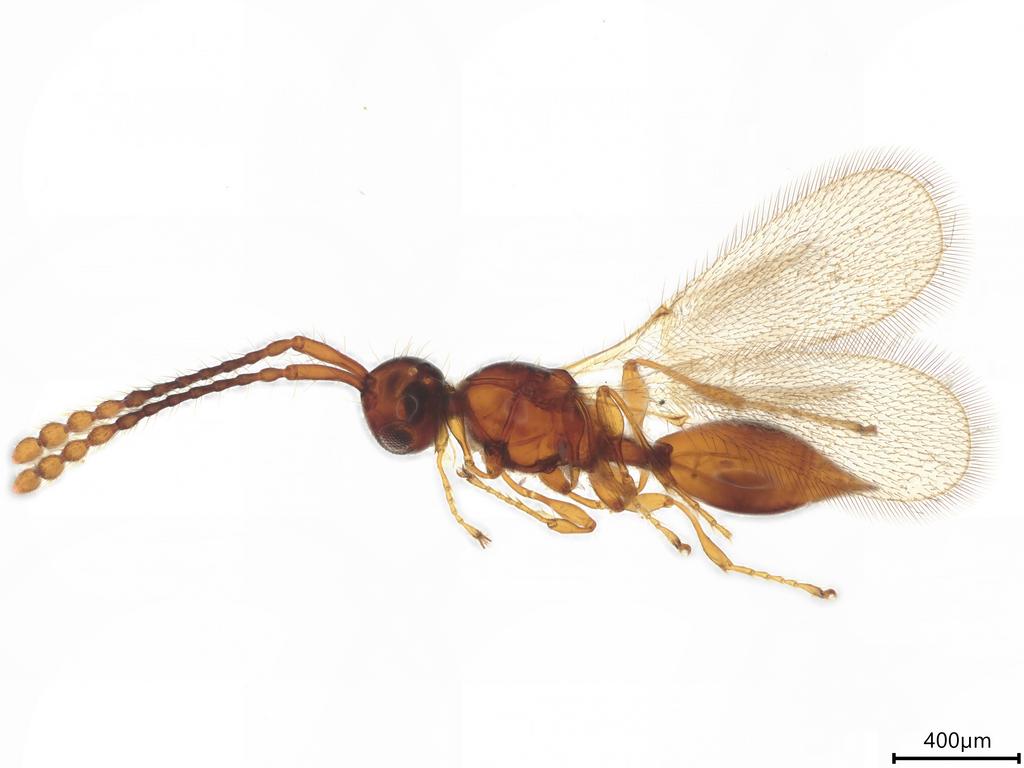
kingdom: Animalia
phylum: Arthropoda
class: Insecta
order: Hymenoptera
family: Diapriidae
